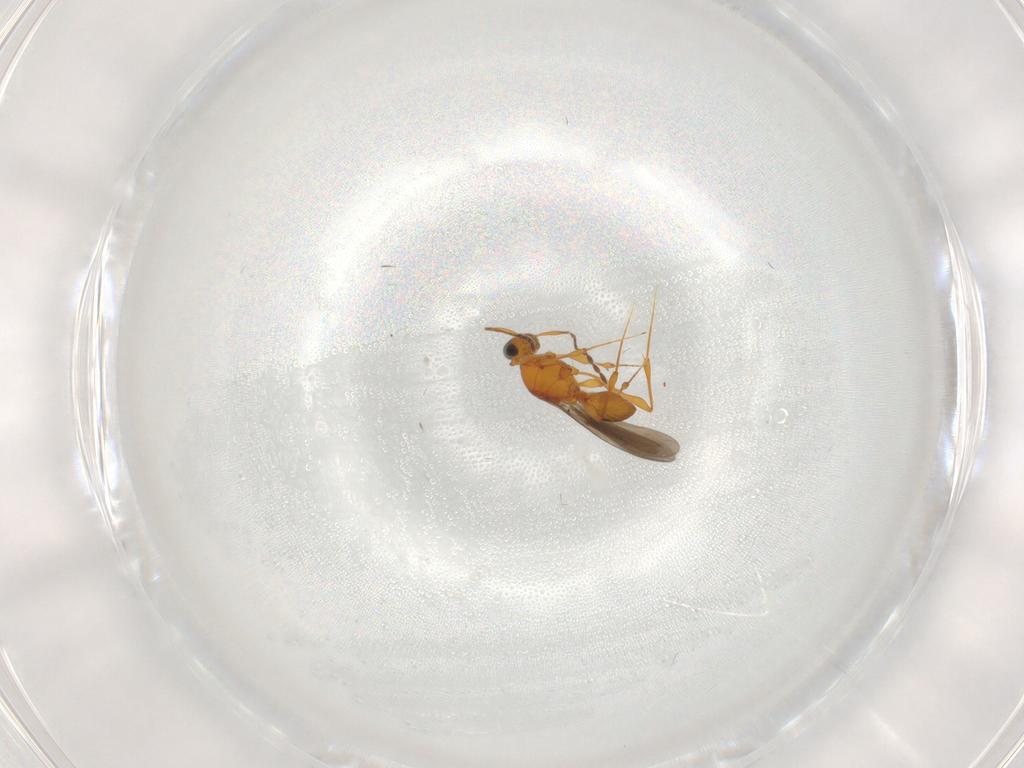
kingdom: Animalia
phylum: Arthropoda
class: Insecta
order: Hymenoptera
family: Platygastridae
